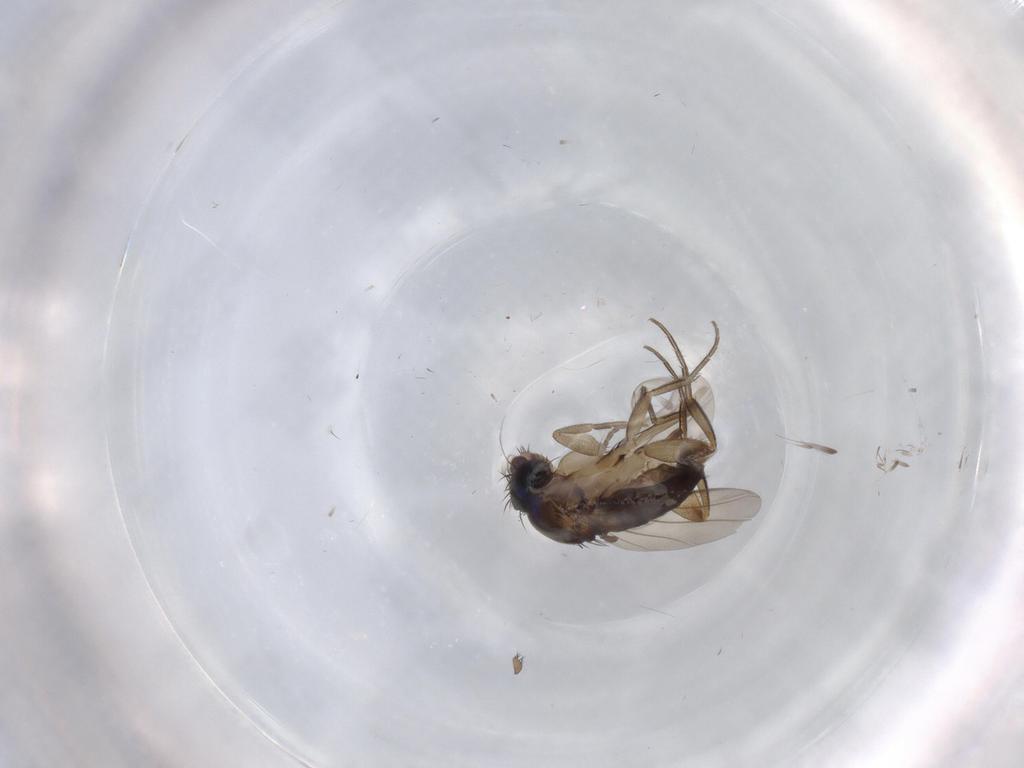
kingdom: Animalia
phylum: Arthropoda
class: Insecta
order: Diptera
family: Phoridae
